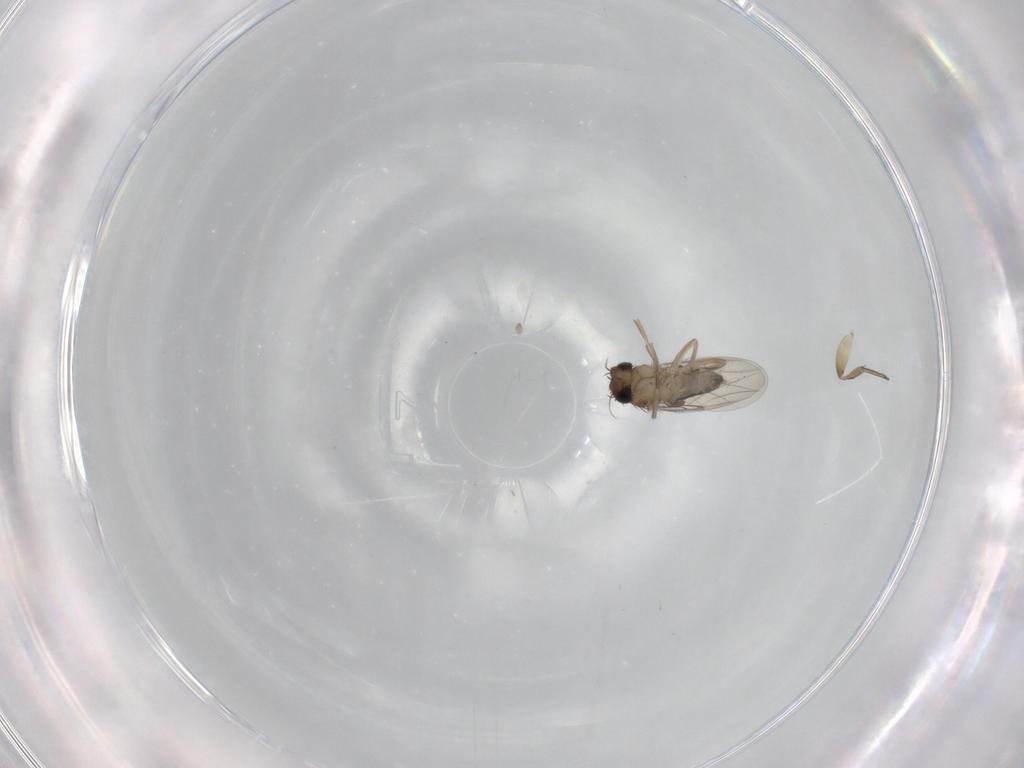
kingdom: Animalia
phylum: Arthropoda
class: Insecta
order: Diptera
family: Phoridae
